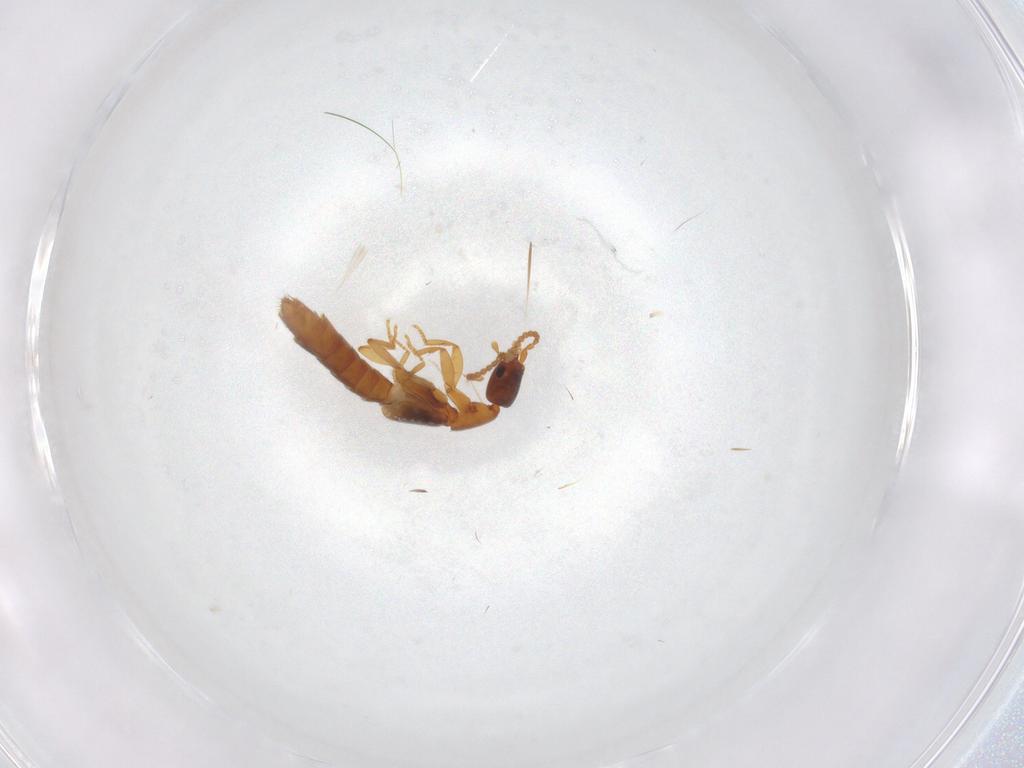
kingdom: Animalia
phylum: Arthropoda
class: Insecta
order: Coleoptera
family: Staphylinidae
